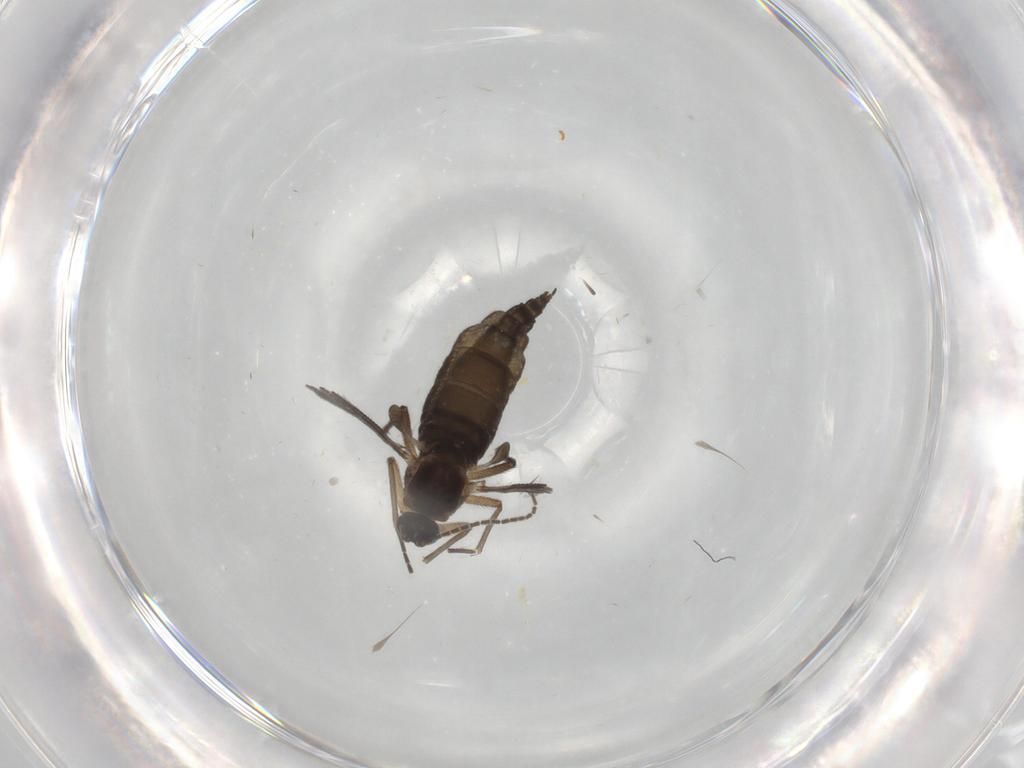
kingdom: Animalia
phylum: Arthropoda
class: Insecta
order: Diptera
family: Sciaridae
